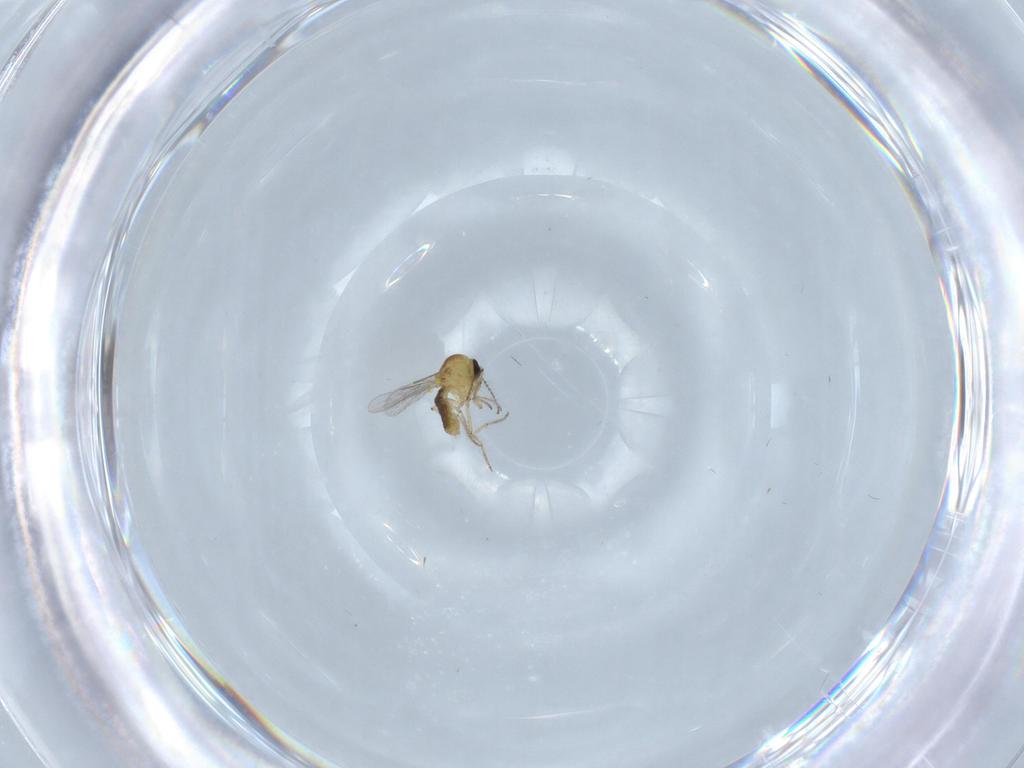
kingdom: Animalia
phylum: Arthropoda
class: Insecta
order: Diptera
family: Ceratopogonidae
